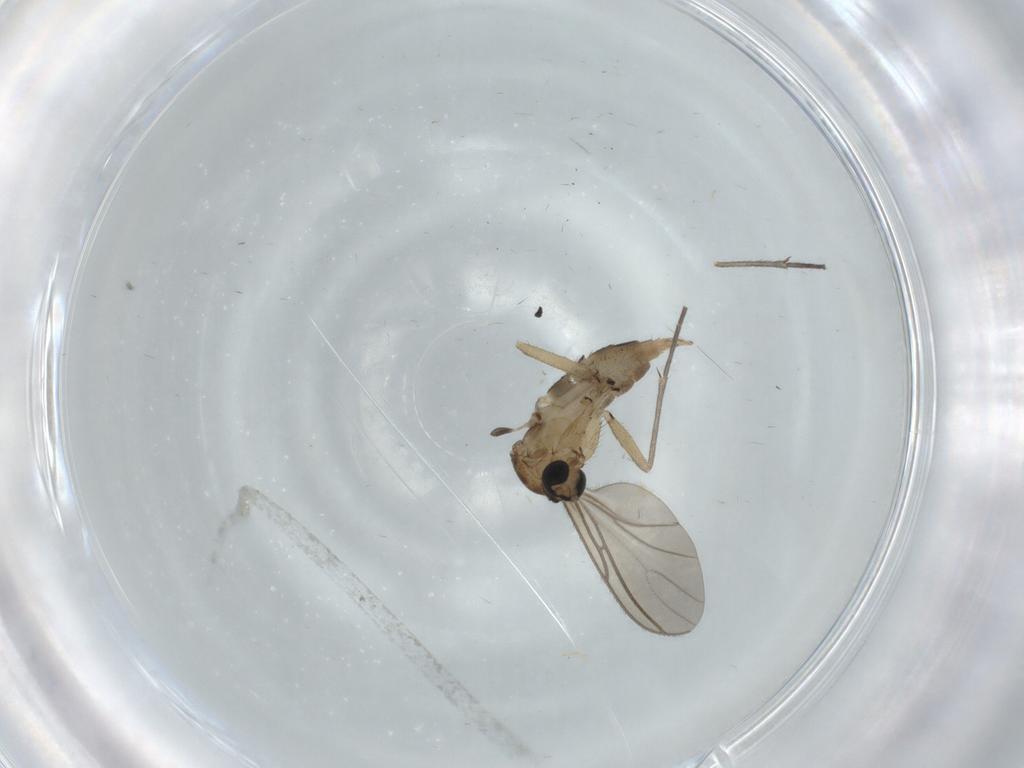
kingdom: Animalia
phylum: Arthropoda
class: Insecta
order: Diptera
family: Sciaridae
